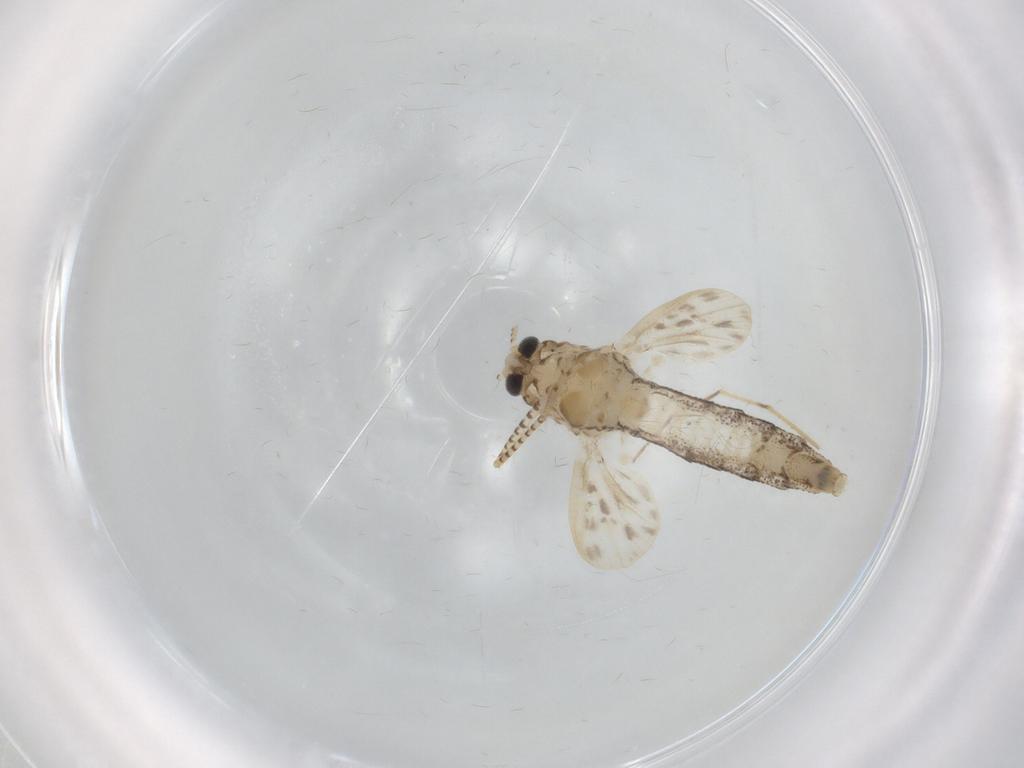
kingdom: Animalia
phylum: Arthropoda
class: Insecta
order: Diptera
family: Chaoboridae
